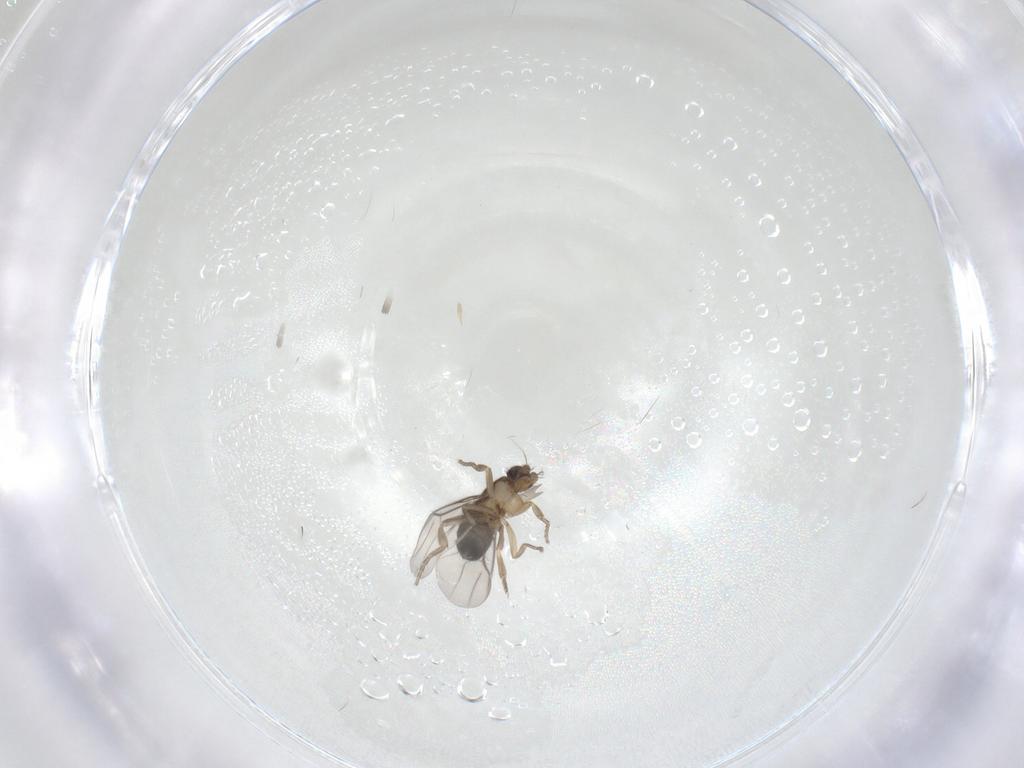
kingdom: Animalia
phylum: Arthropoda
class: Insecta
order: Diptera
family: Phoridae
